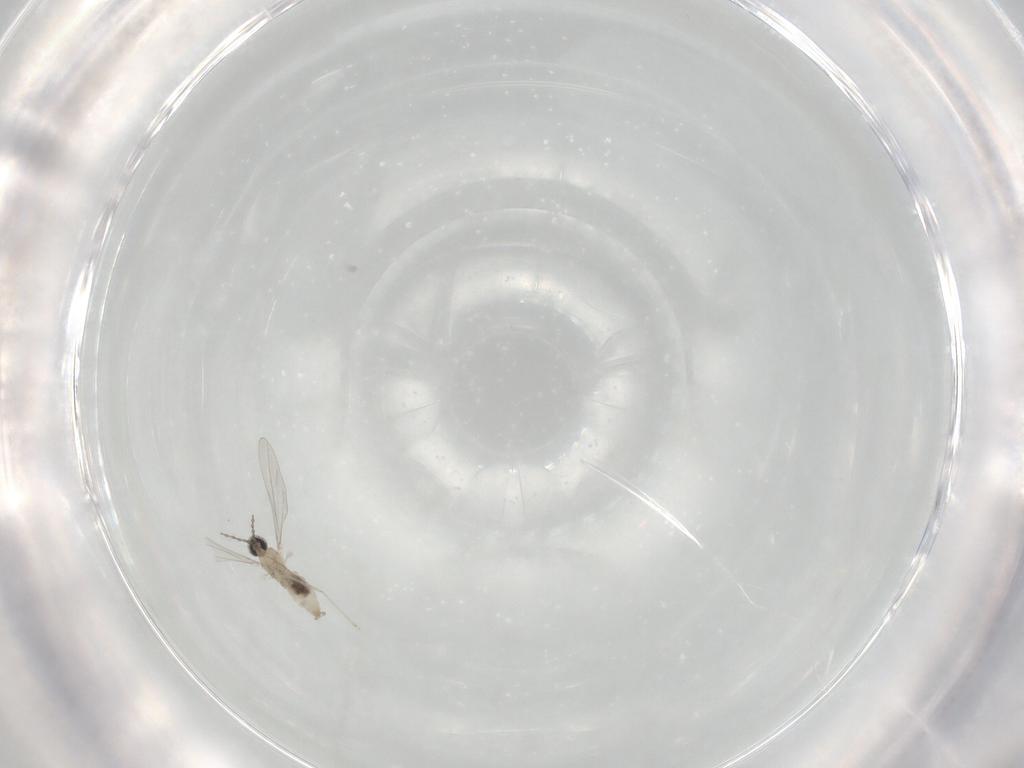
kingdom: Animalia
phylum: Arthropoda
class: Insecta
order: Diptera
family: Cecidomyiidae
